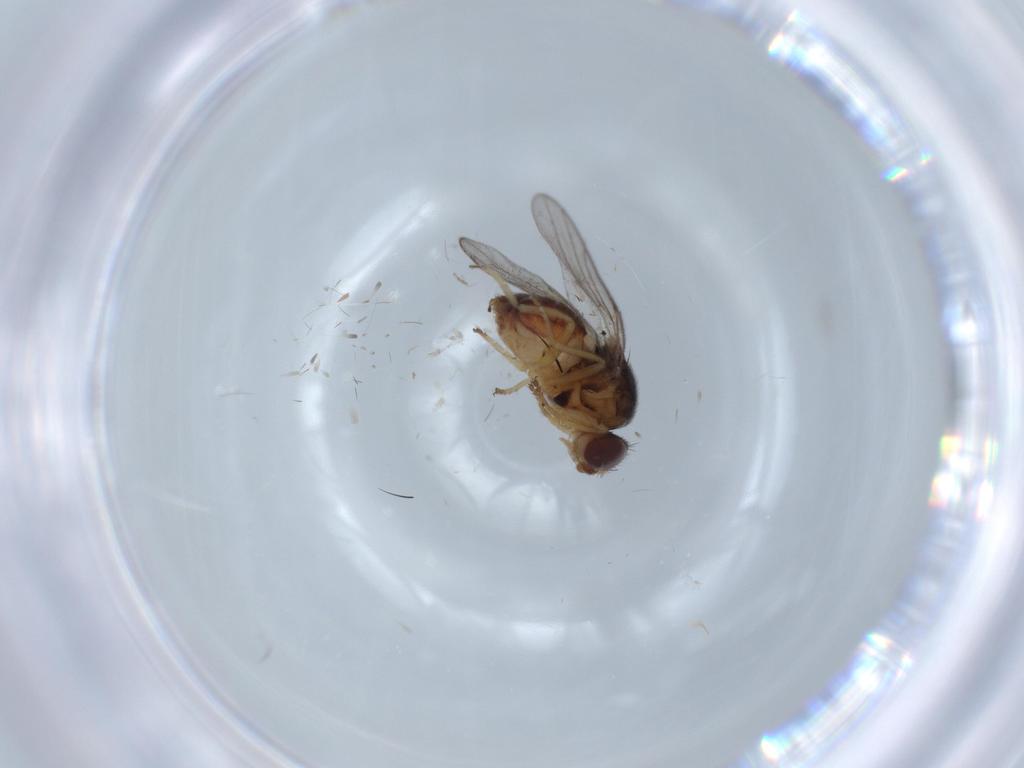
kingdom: Animalia
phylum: Arthropoda
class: Insecta
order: Diptera
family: Chloropidae
